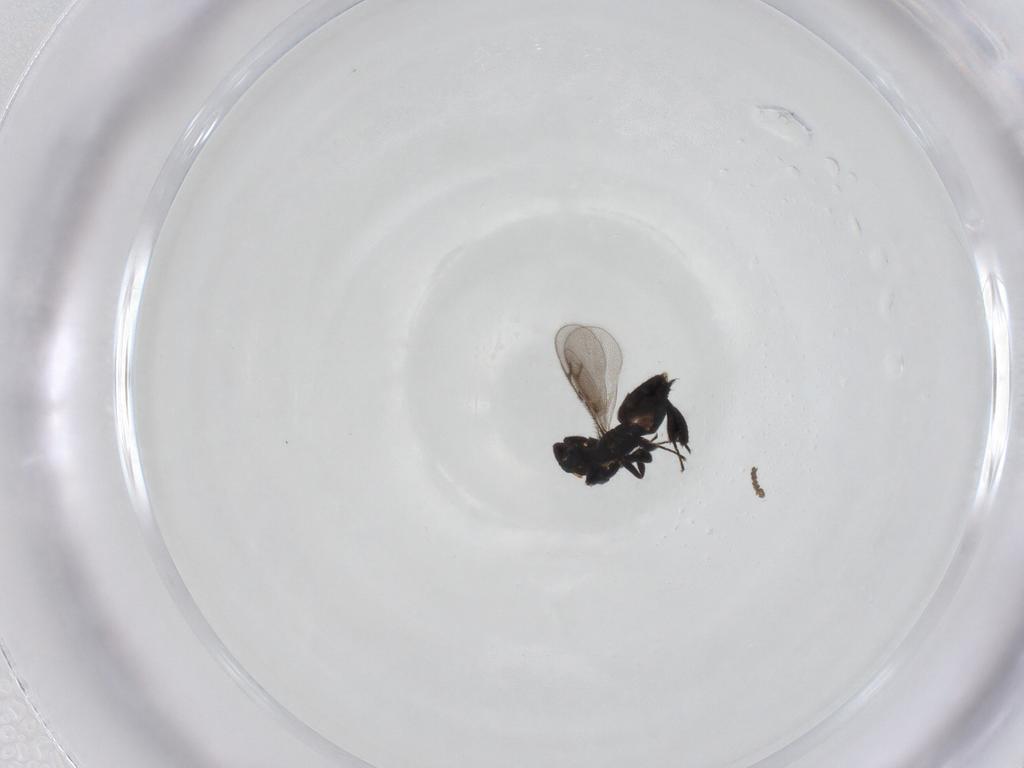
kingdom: Animalia
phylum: Arthropoda
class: Insecta
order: Hymenoptera
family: Pirenidae
